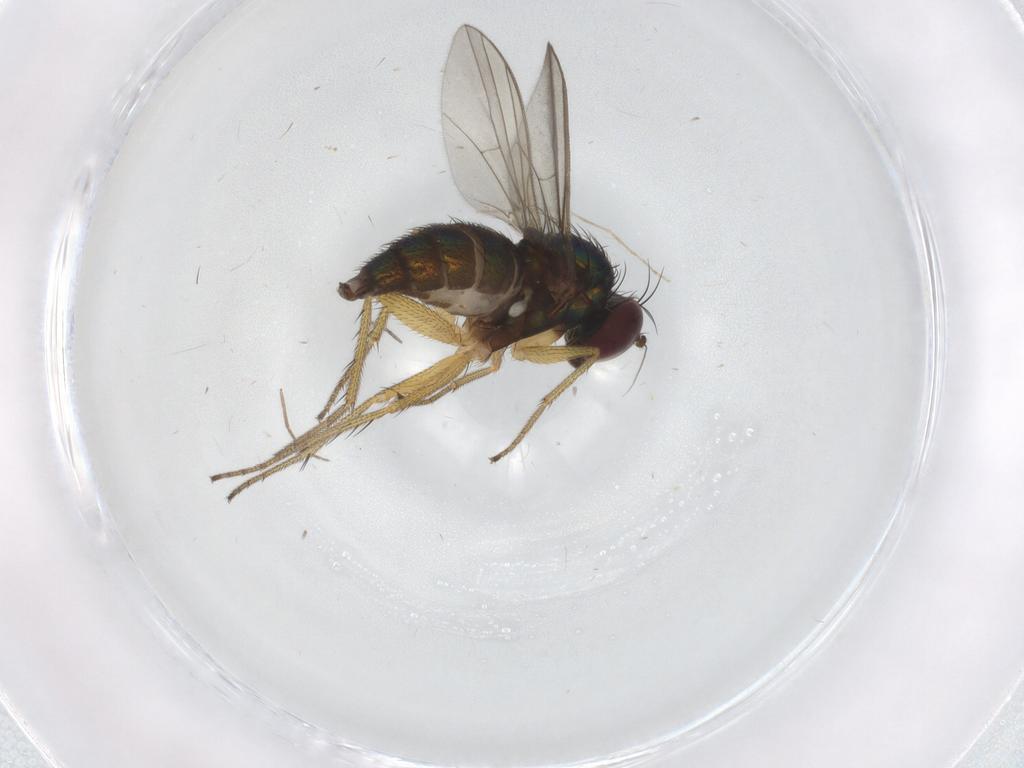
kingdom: Animalia
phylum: Arthropoda
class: Insecta
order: Diptera
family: Sciaridae
